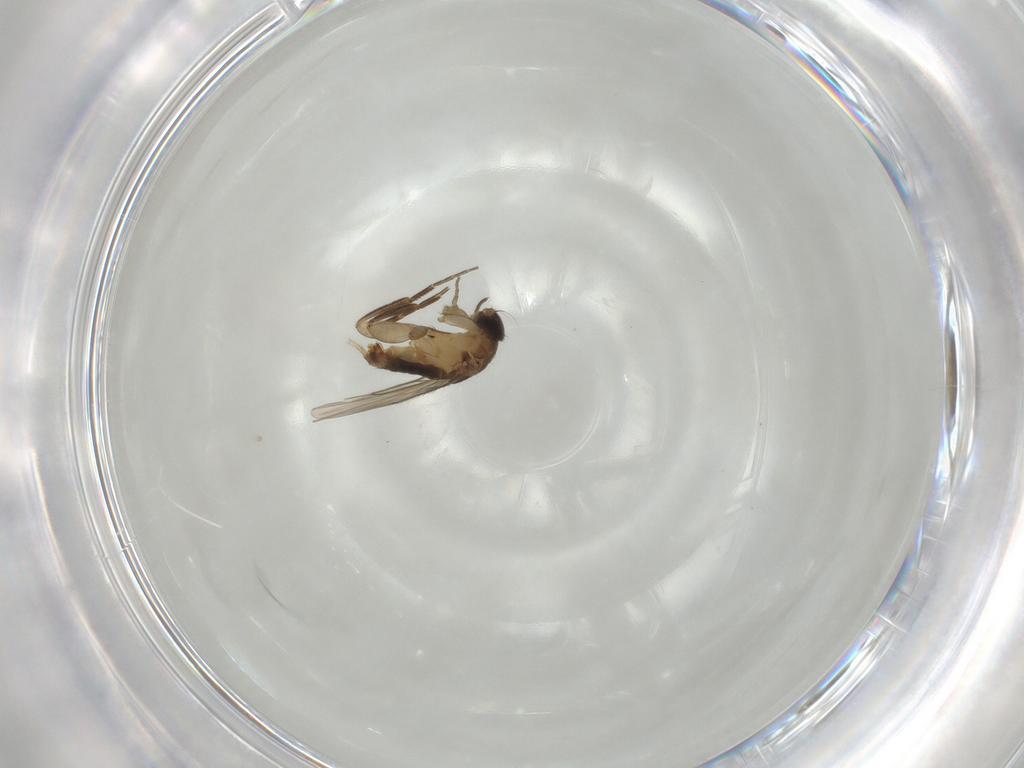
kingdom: Animalia
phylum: Arthropoda
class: Insecta
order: Diptera
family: Phoridae
